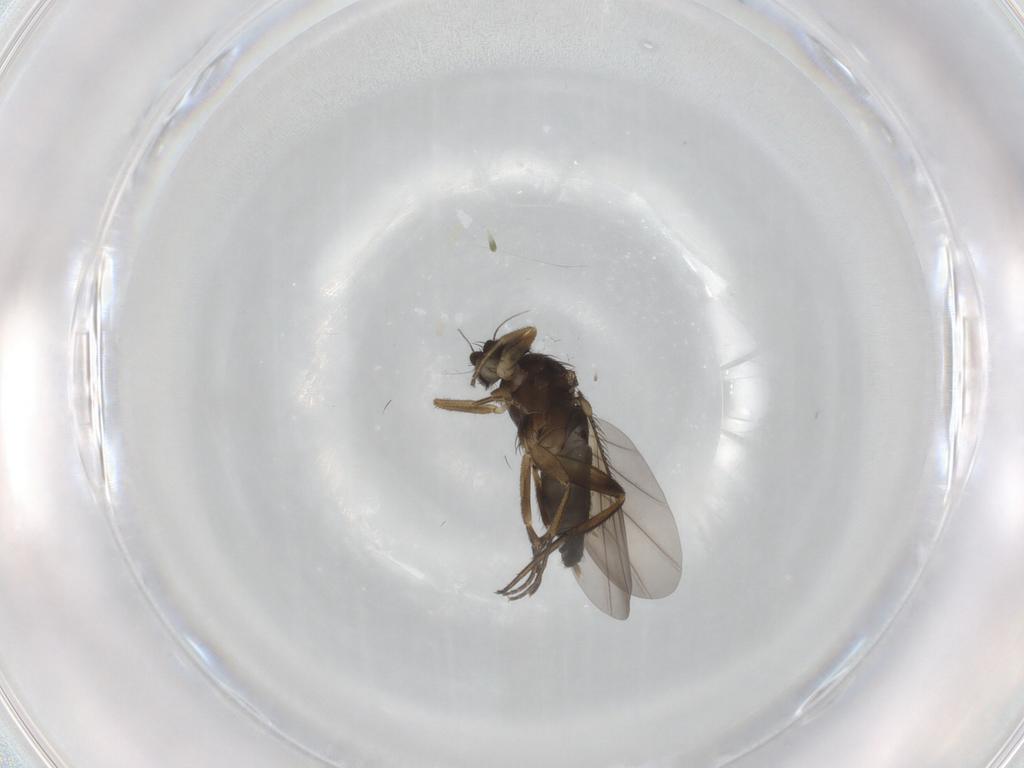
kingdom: Animalia
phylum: Arthropoda
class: Insecta
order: Diptera
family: Phoridae
